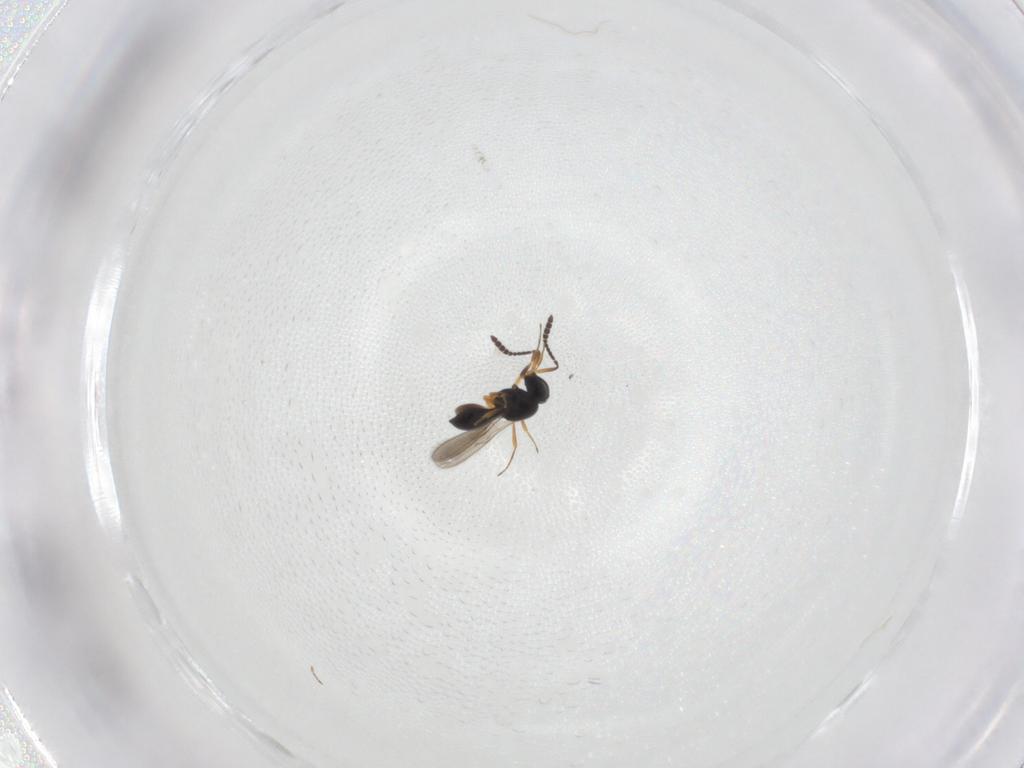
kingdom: Animalia
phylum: Arthropoda
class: Insecta
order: Hymenoptera
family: Scelionidae
